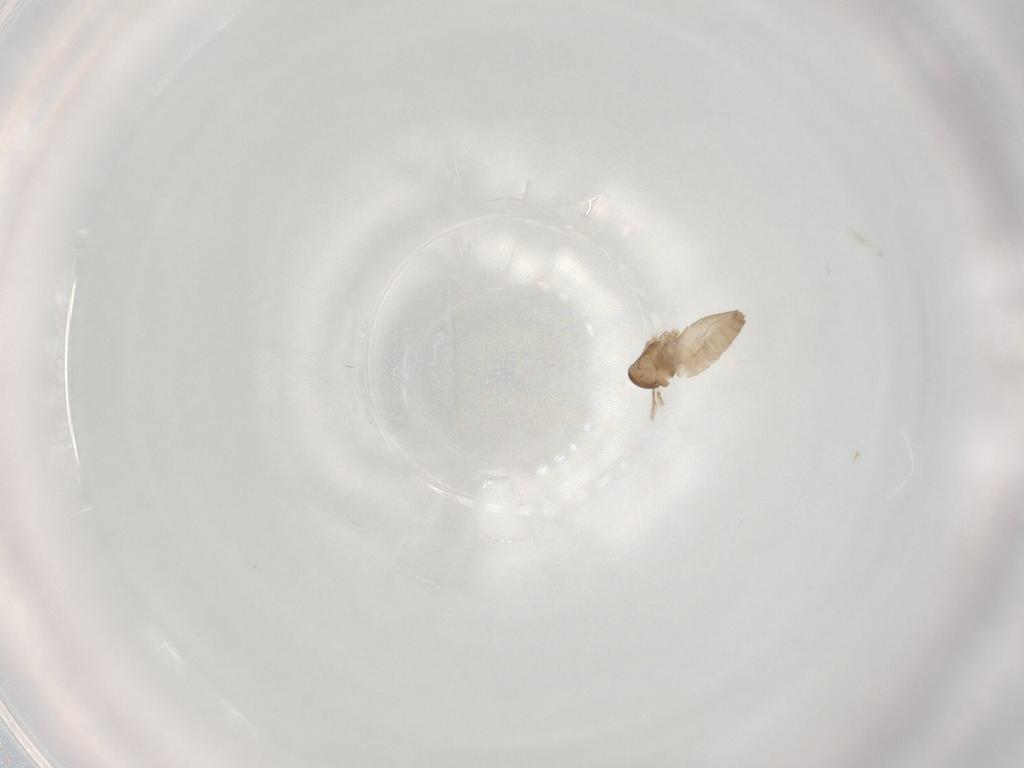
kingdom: Animalia
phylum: Arthropoda
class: Insecta
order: Diptera
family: Cecidomyiidae
